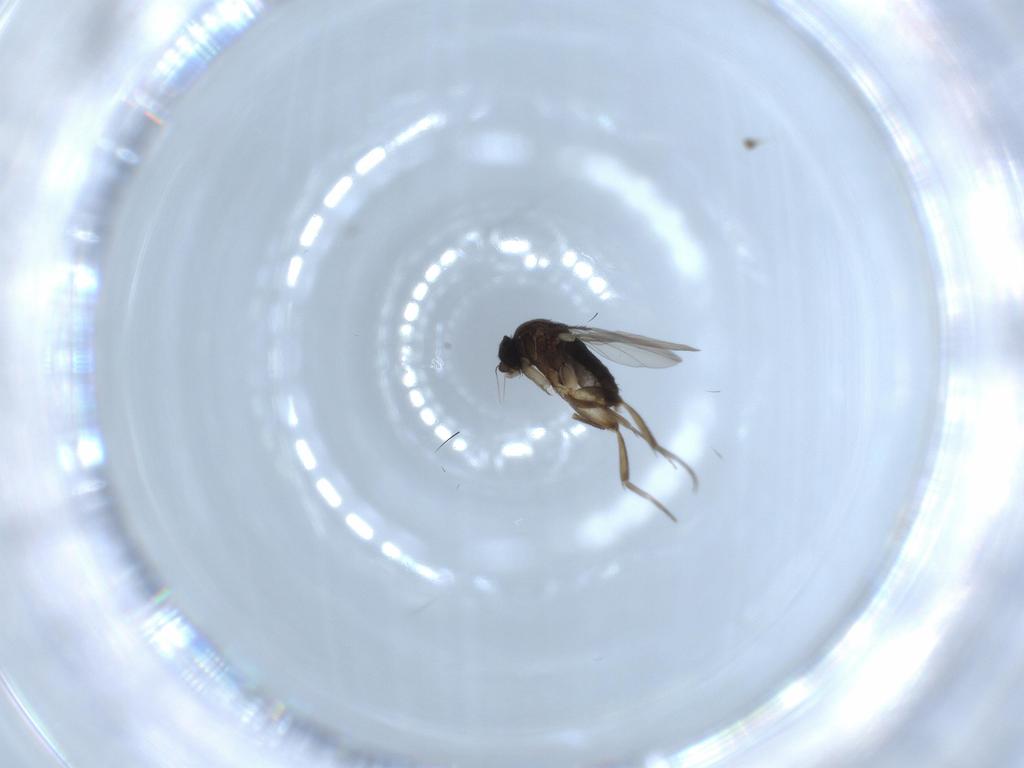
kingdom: Animalia
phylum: Arthropoda
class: Insecta
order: Diptera
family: Phoridae
